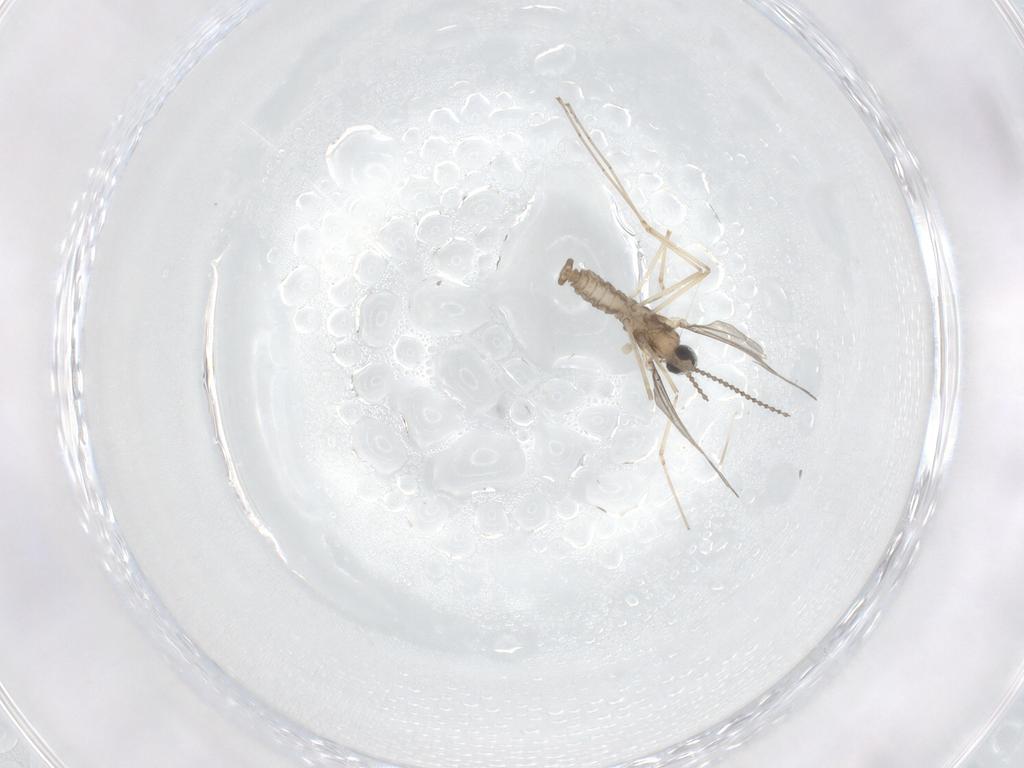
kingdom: Animalia
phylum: Arthropoda
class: Insecta
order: Diptera
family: Cecidomyiidae
